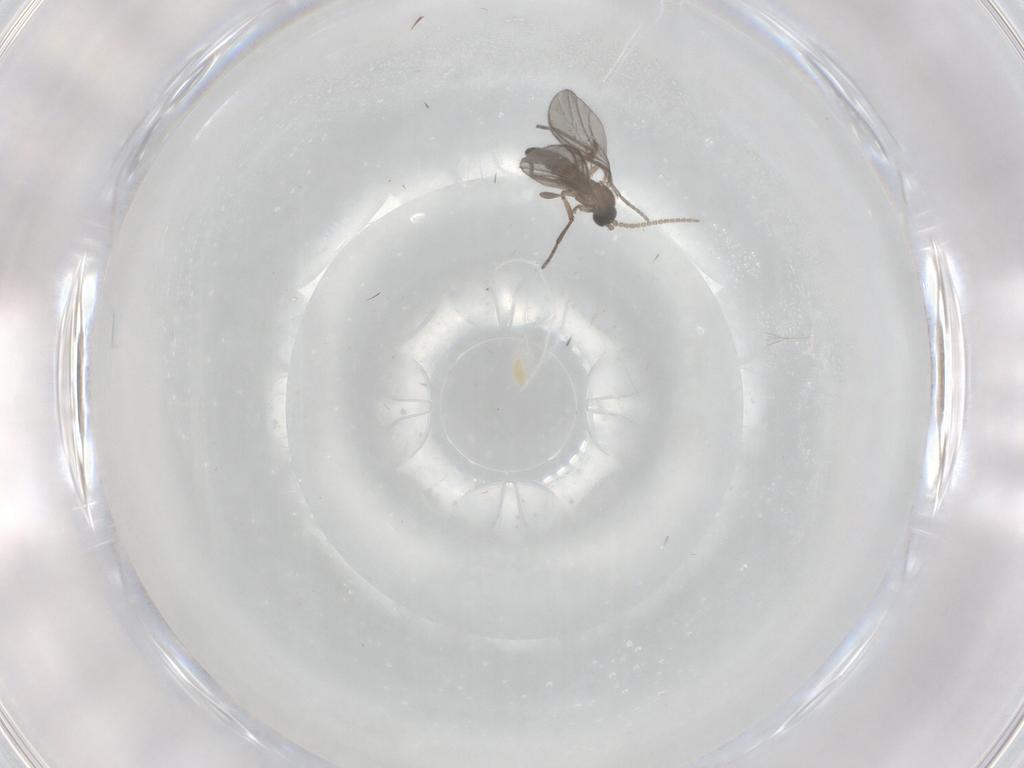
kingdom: Animalia
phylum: Arthropoda
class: Insecta
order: Diptera
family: Sciaridae
